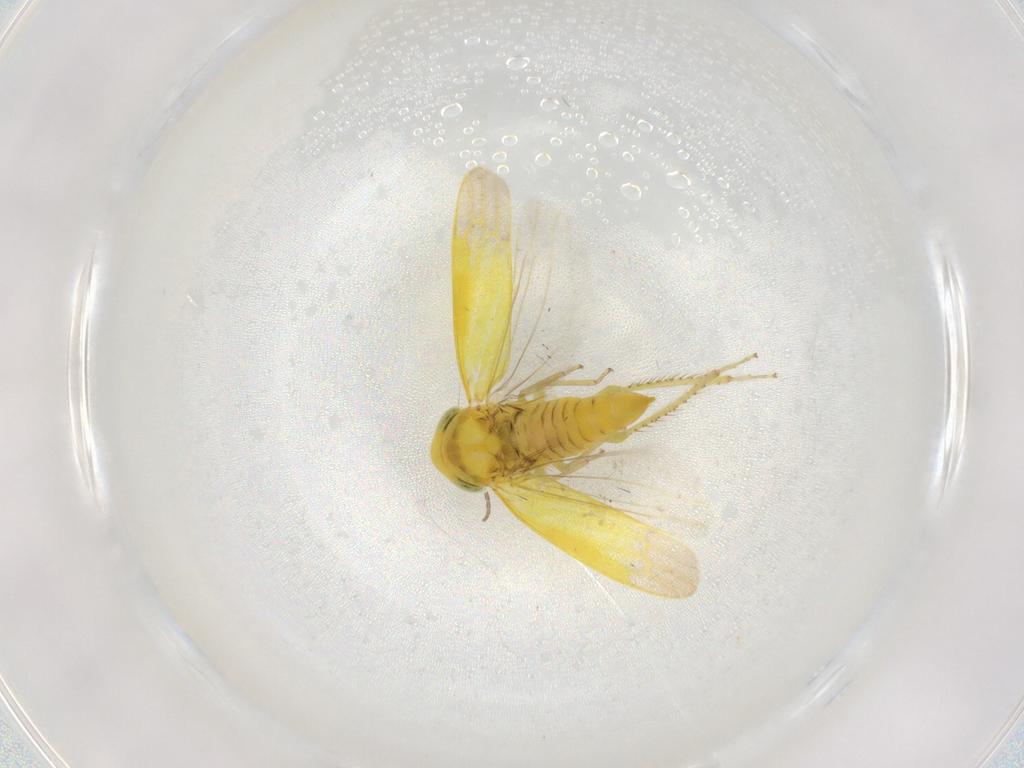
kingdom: Animalia
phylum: Arthropoda
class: Insecta
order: Hemiptera
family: Cicadellidae
